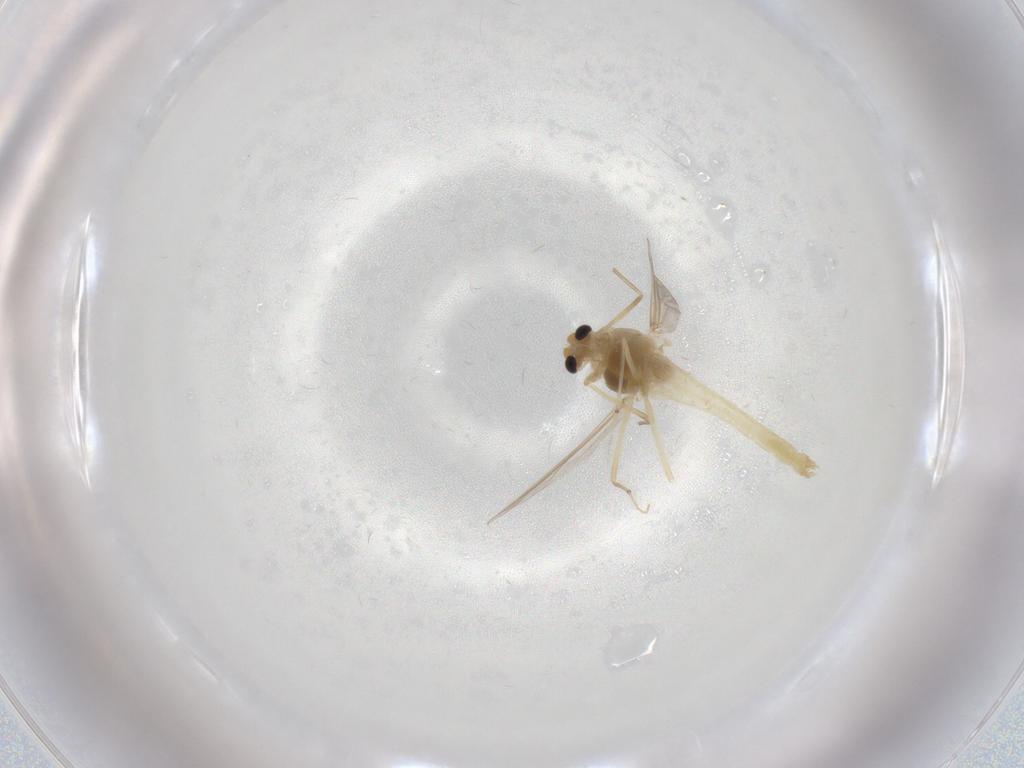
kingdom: Animalia
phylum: Arthropoda
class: Insecta
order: Diptera
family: Chironomidae
